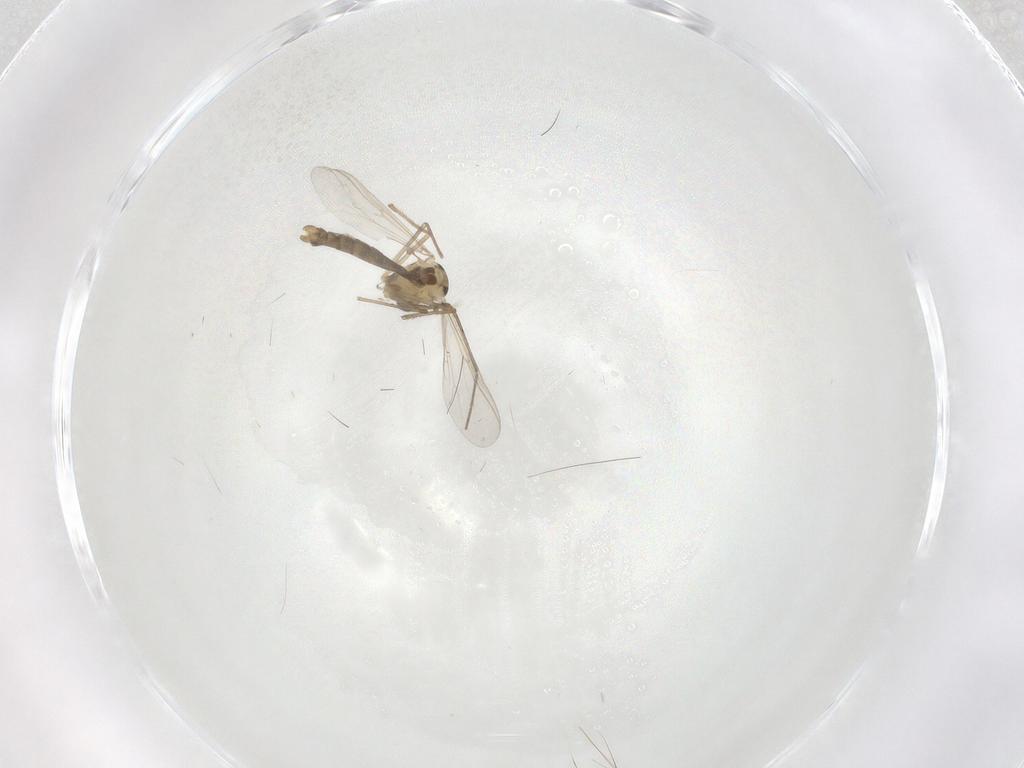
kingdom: Animalia
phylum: Arthropoda
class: Insecta
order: Diptera
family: Chironomidae
